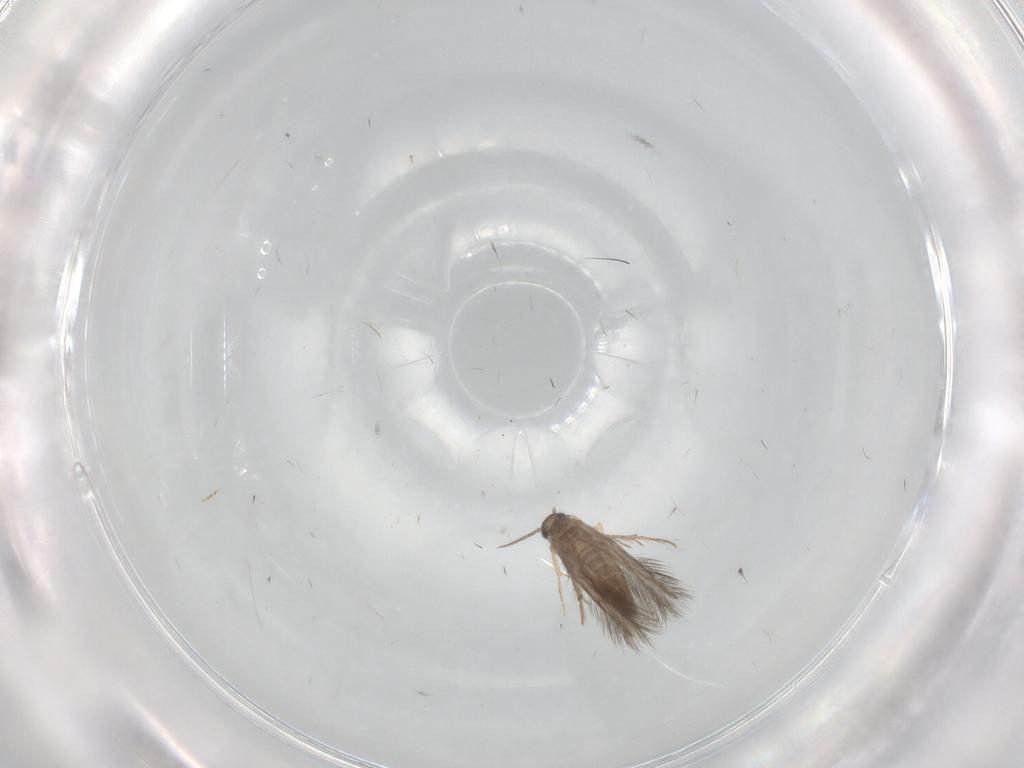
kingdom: Animalia
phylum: Arthropoda
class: Insecta
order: Trichoptera
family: Hydroptilidae
